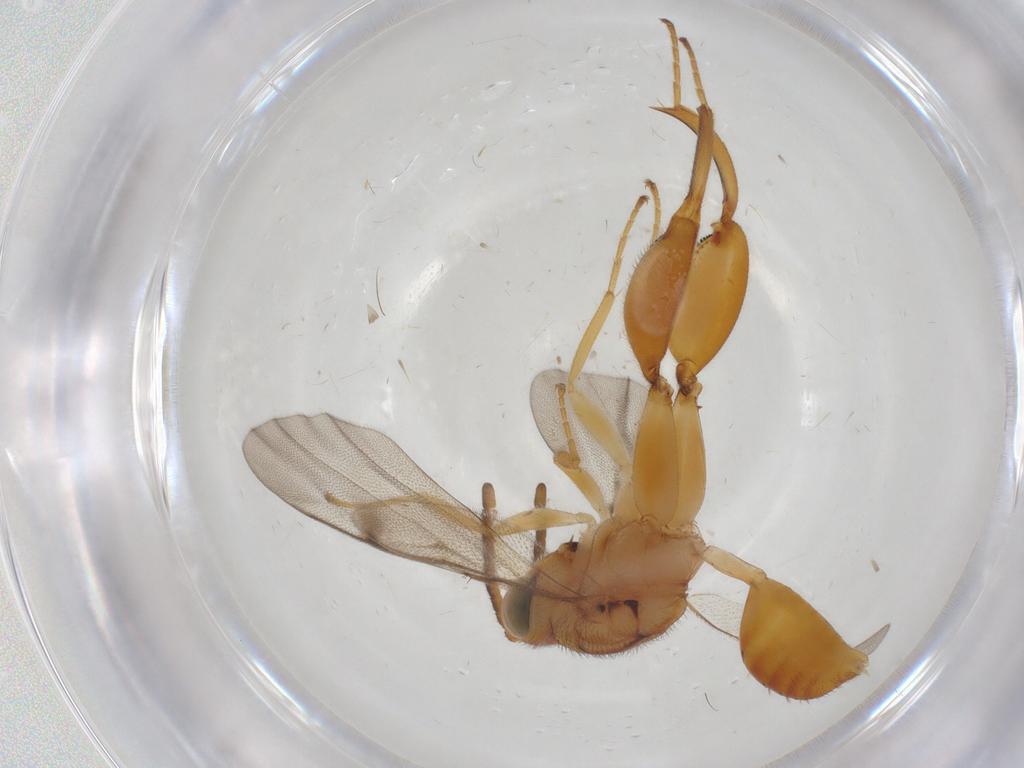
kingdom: Animalia
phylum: Arthropoda
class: Insecta
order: Hymenoptera
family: Chalcididae
